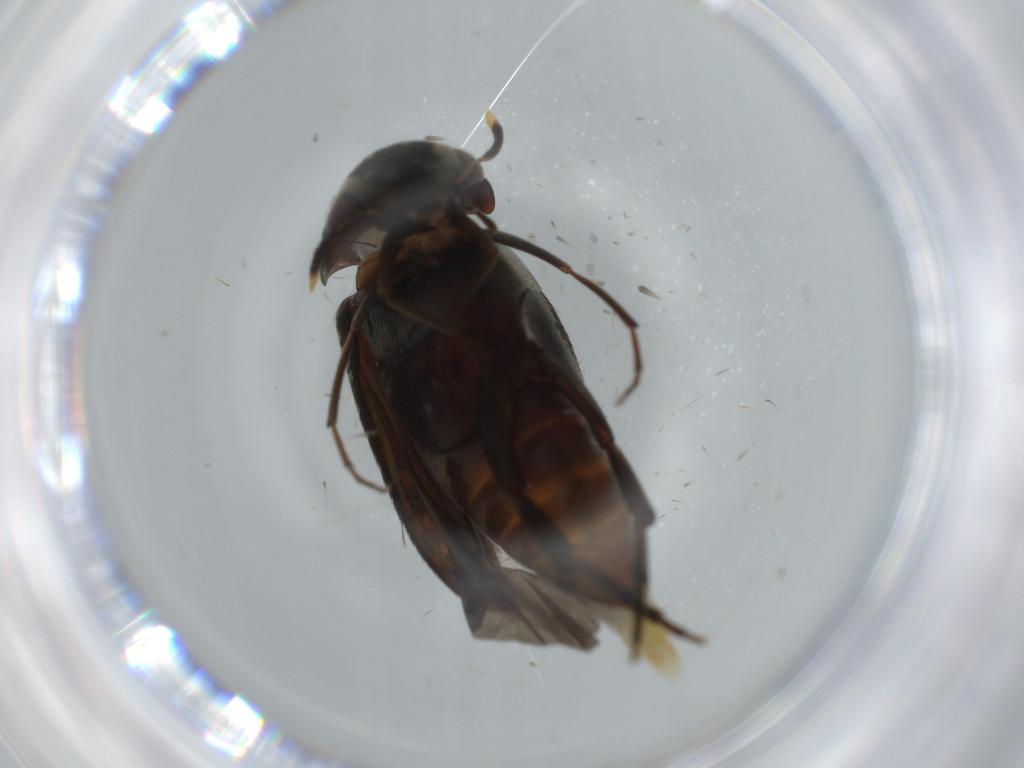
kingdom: Animalia
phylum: Arthropoda
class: Insecta
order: Coleoptera
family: Mordellidae
